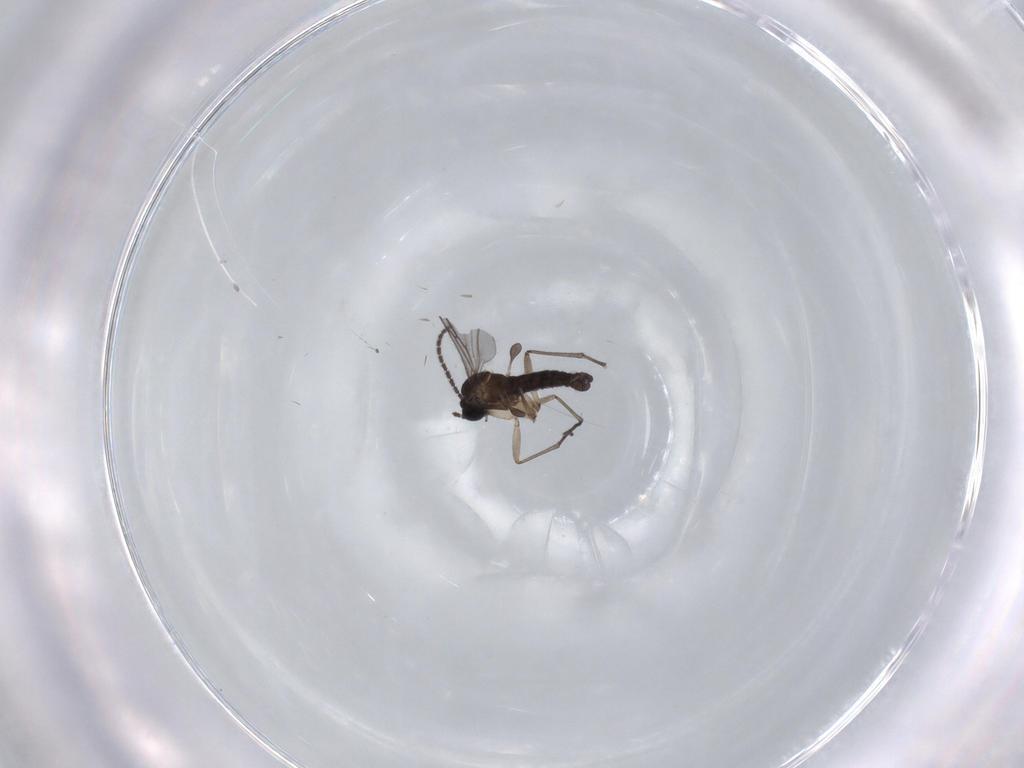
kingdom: Animalia
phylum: Arthropoda
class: Insecta
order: Diptera
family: Sciaridae
